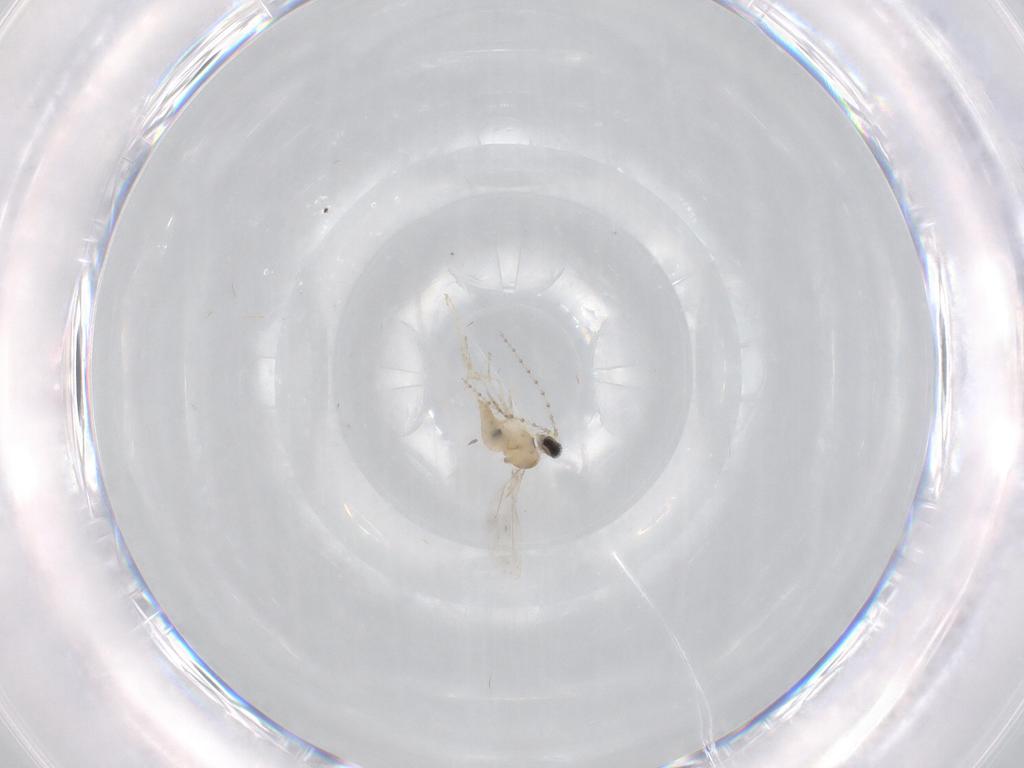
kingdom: Animalia
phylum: Arthropoda
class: Insecta
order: Diptera
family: Cecidomyiidae
